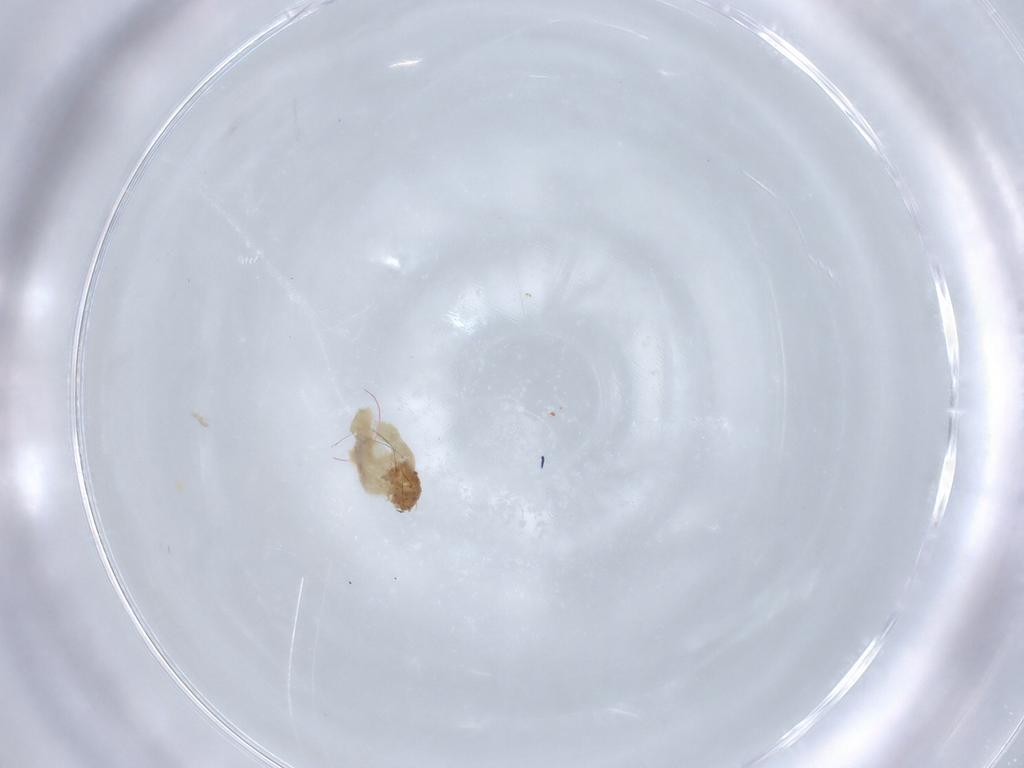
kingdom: Animalia
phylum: Arthropoda
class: Insecta
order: Diptera
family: Chironomidae
